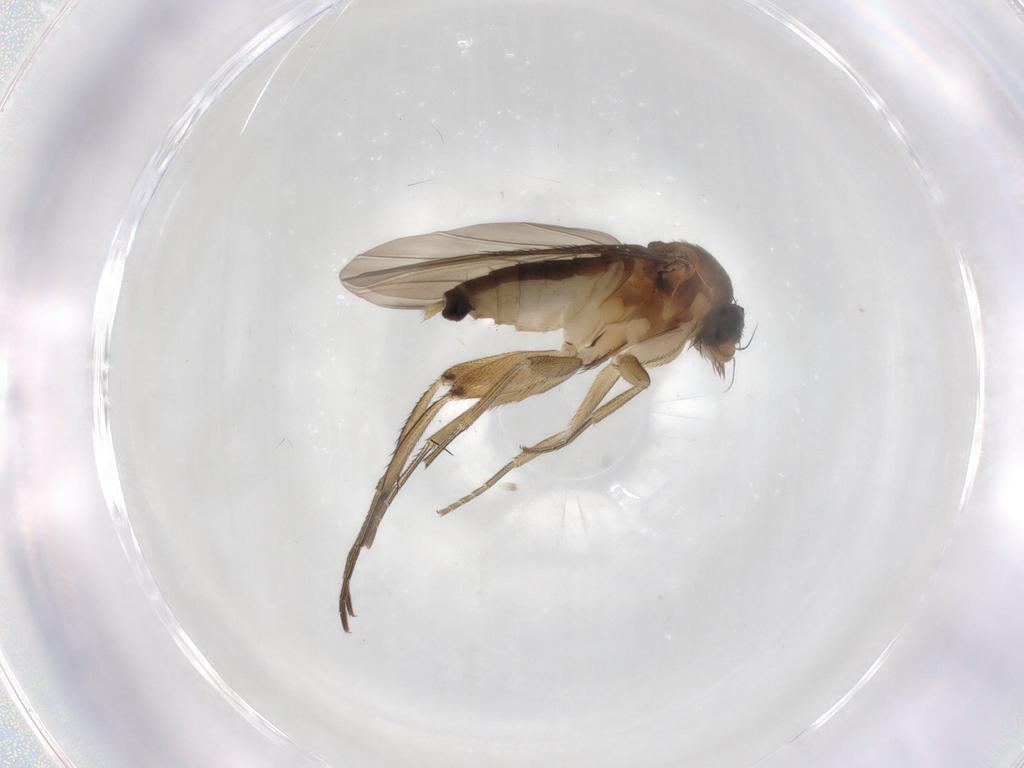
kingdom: Animalia
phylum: Arthropoda
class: Insecta
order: Diptera
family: Phoridae
